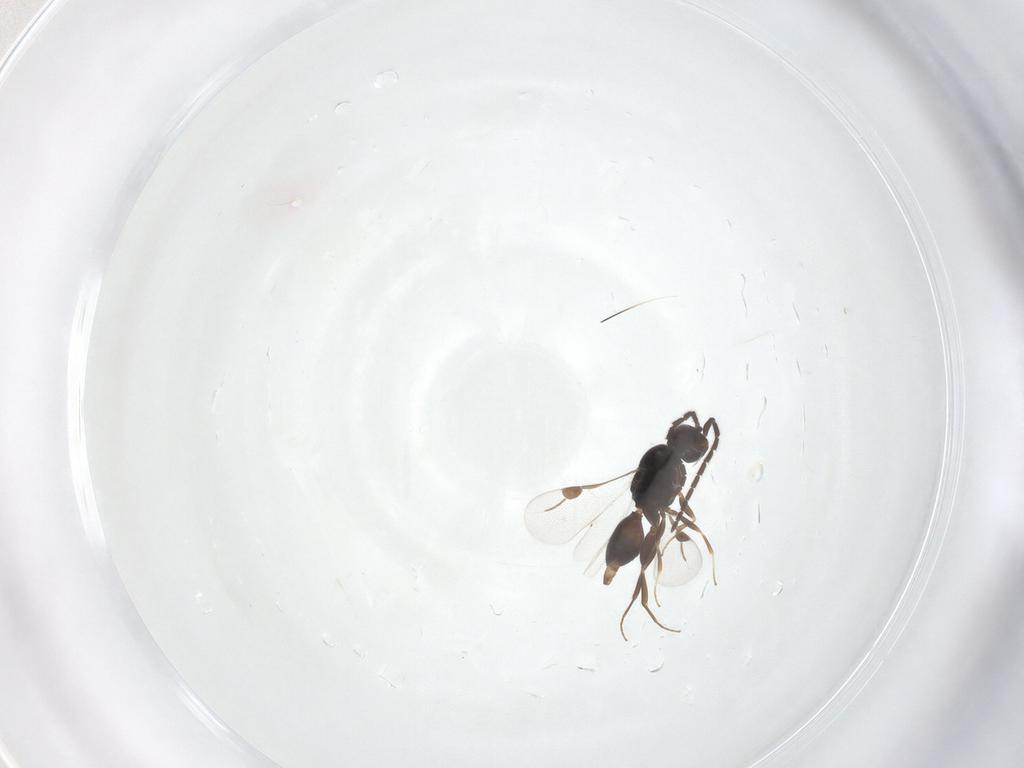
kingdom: Animalia
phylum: Arthropoda
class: Insecta
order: Hymenoptera
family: Megaspilidae
